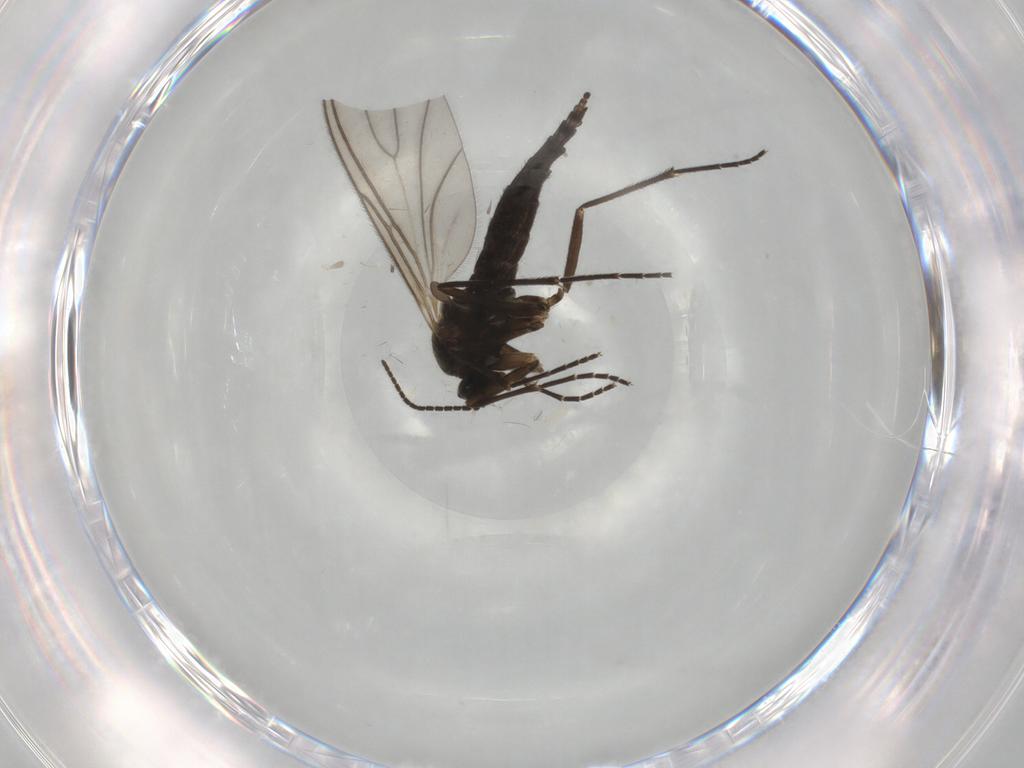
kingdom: Animalia
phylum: Arthropoda
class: Insecta
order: Diptera
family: Sciaridae
